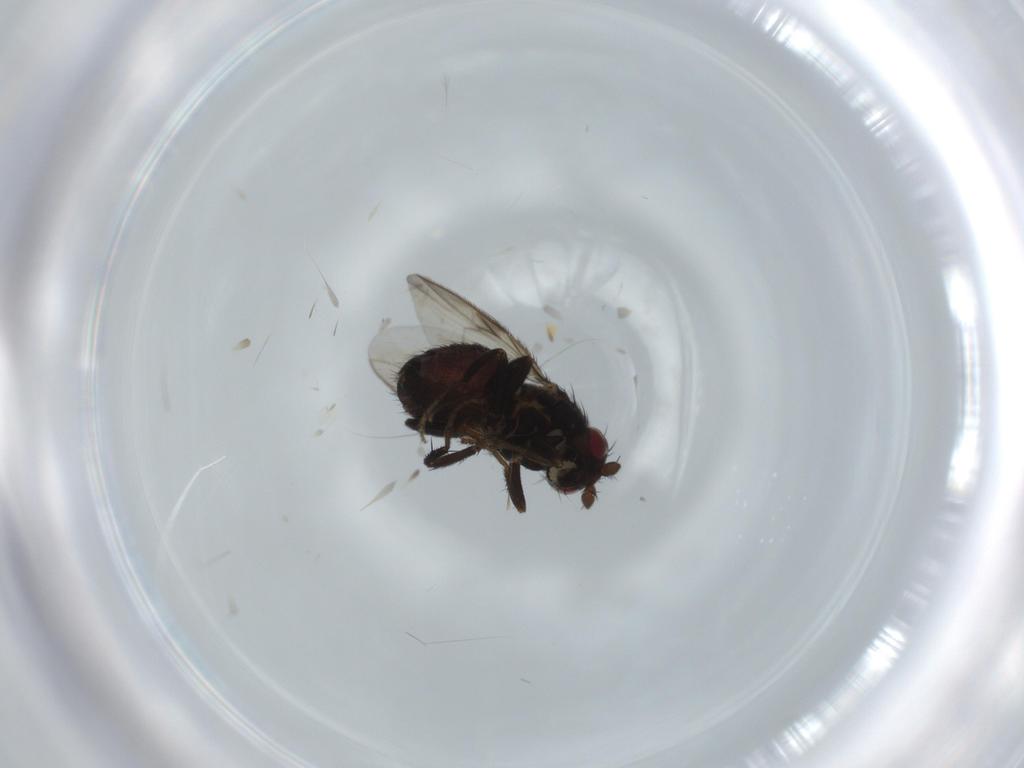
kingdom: Animalia
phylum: Arthropoda
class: Insecta
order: Diptera
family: Sphaeroceridae
